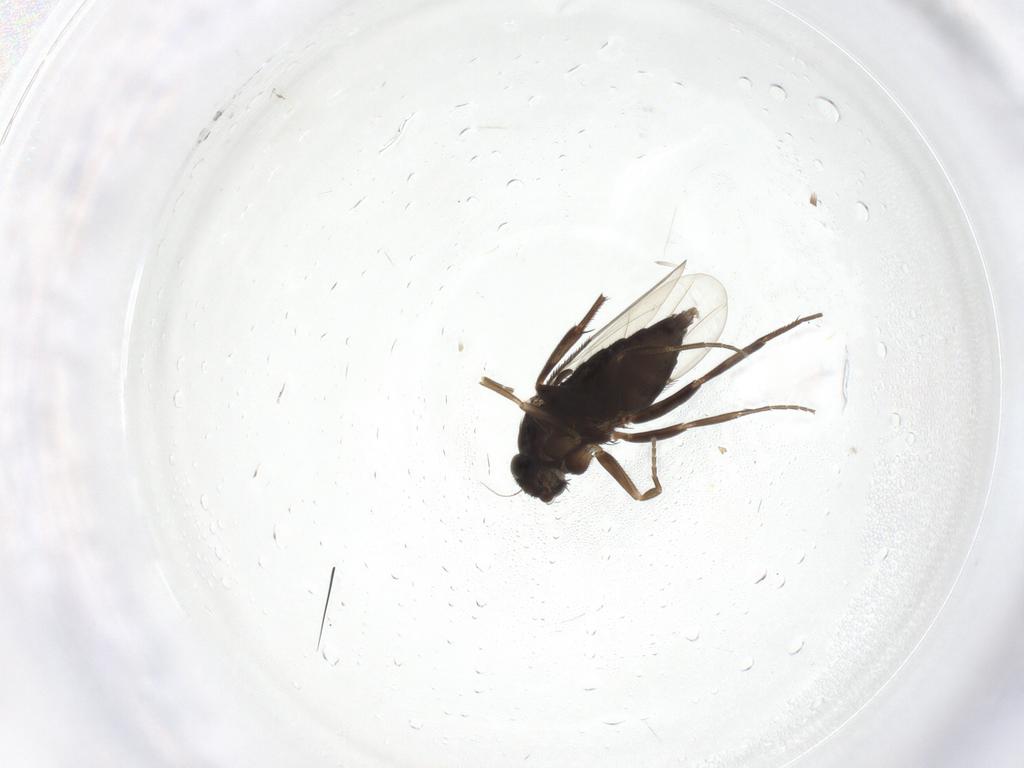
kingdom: Animalia
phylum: Arthropoda
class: Insecta
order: Diptera
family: Phoridae
